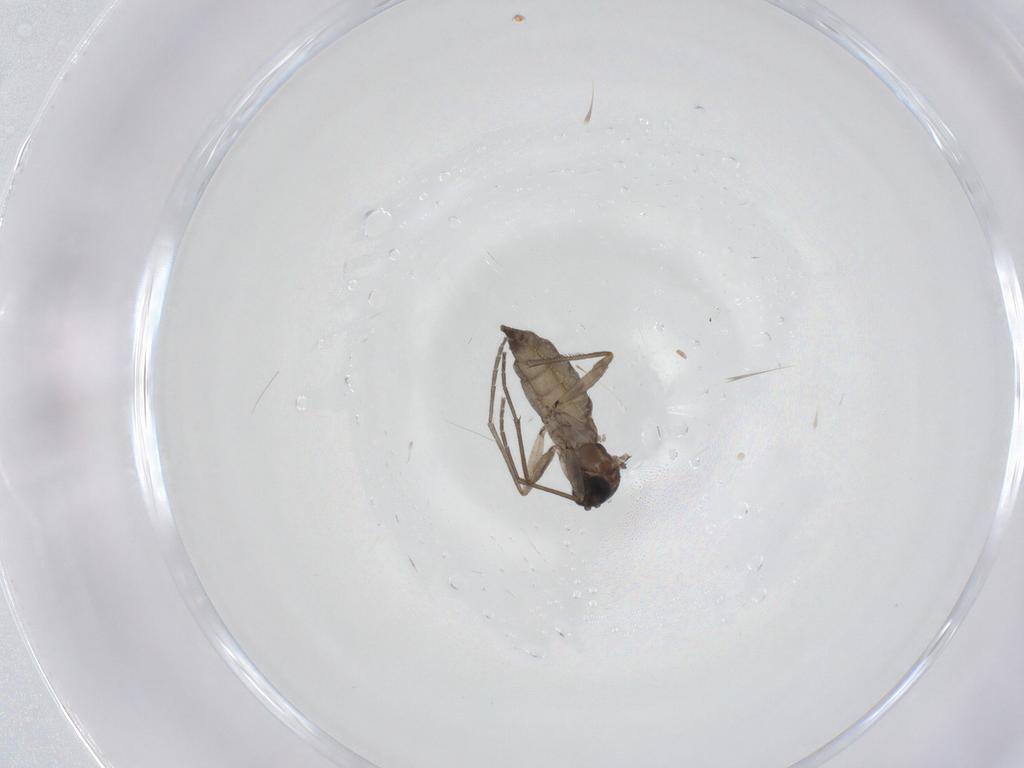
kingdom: Animalia
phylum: Arthropoda
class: Insecta
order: Diptera
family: Sciaridae
